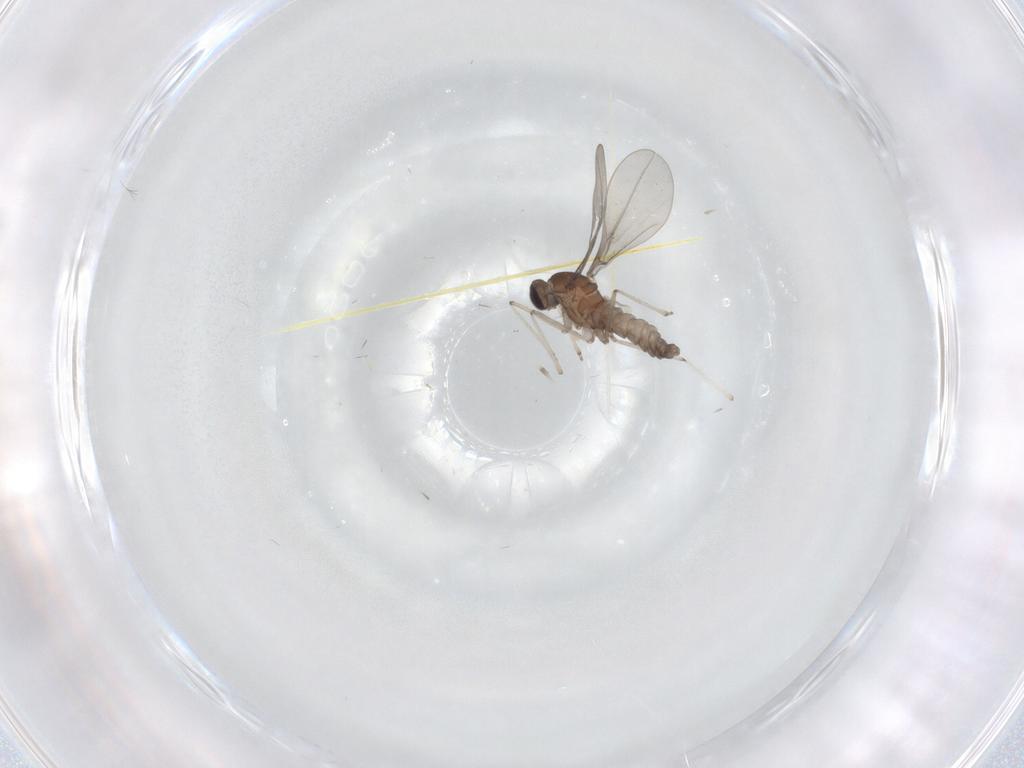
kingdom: Animalia
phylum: Arthropoda
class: Insecta
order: Diptera
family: Cecidomyiidae
